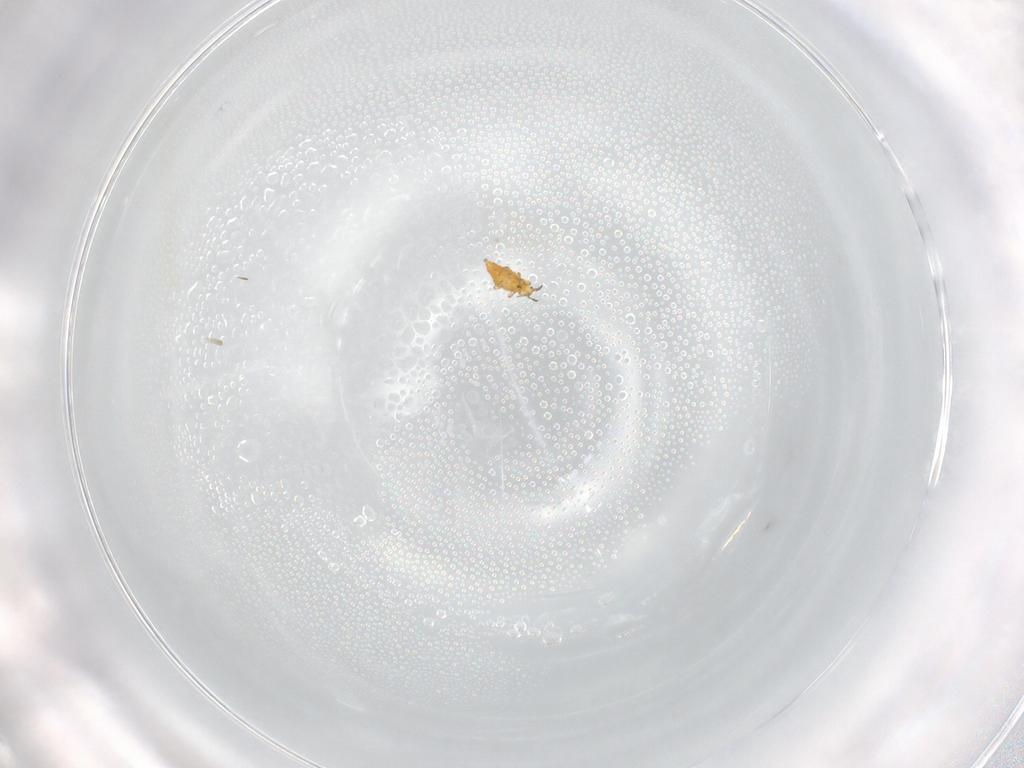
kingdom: Animalia
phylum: Arthropoda
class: Insecta
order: Thysanoptera
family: Thripidae
